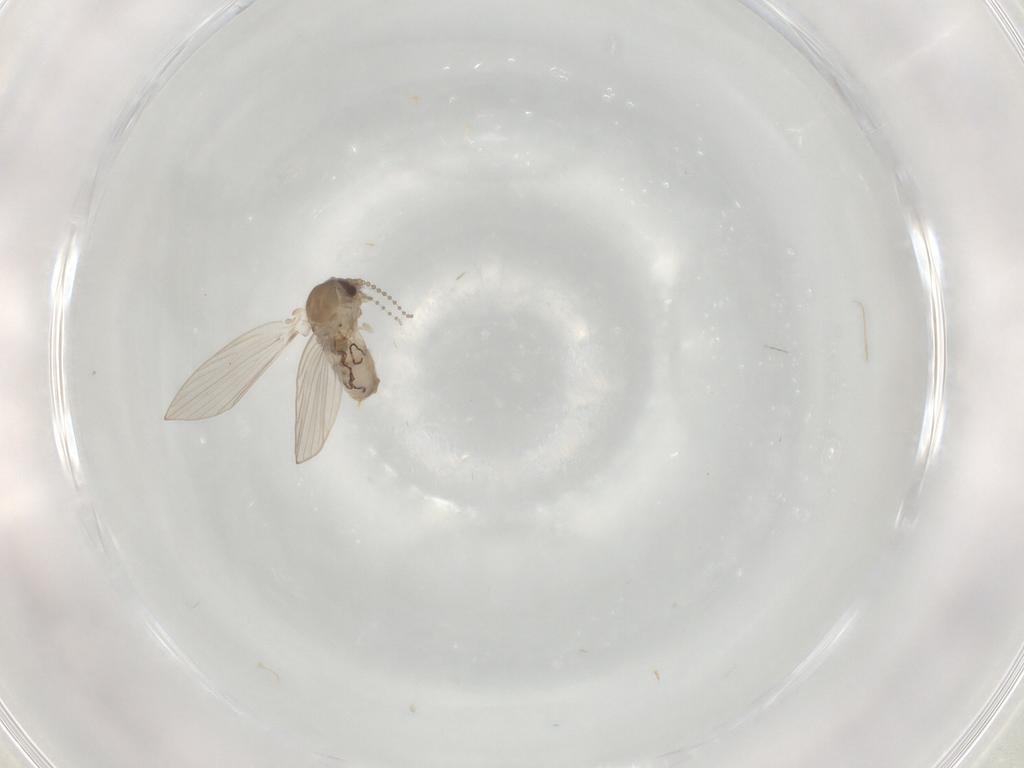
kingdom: Animalia
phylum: Arthropoda
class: Insecta
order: Diptera
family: Psychodidae
